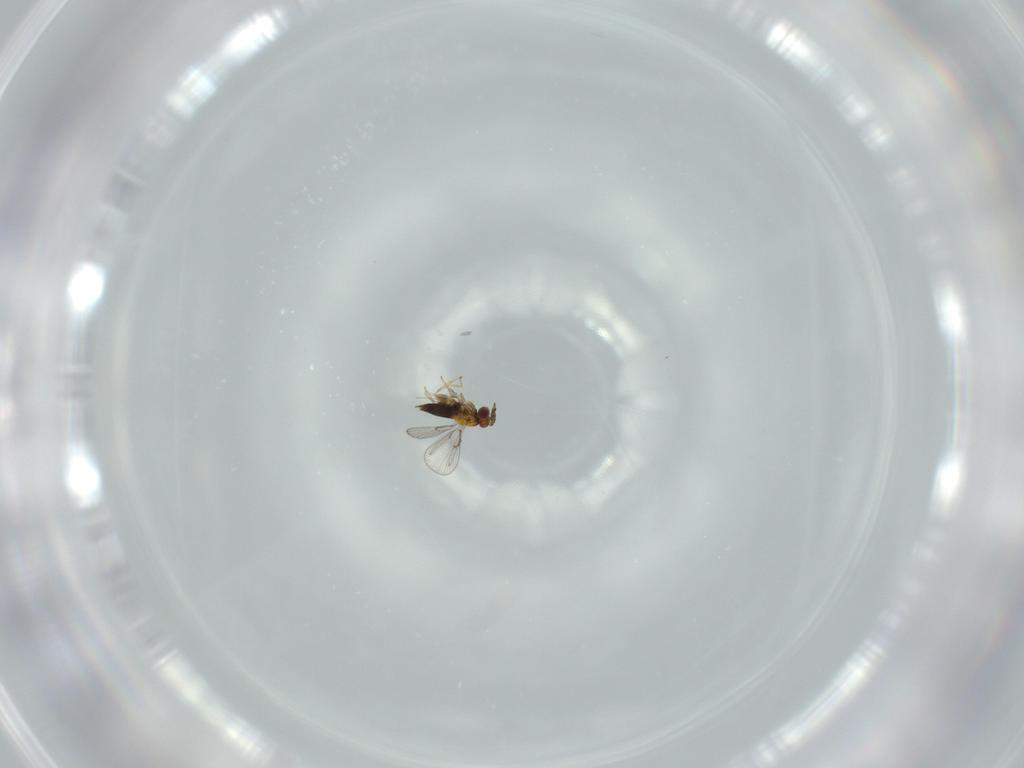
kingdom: Animalia
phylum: Arthropoda
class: Insecta
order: Hymenoptera
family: Trichogrammatidae
